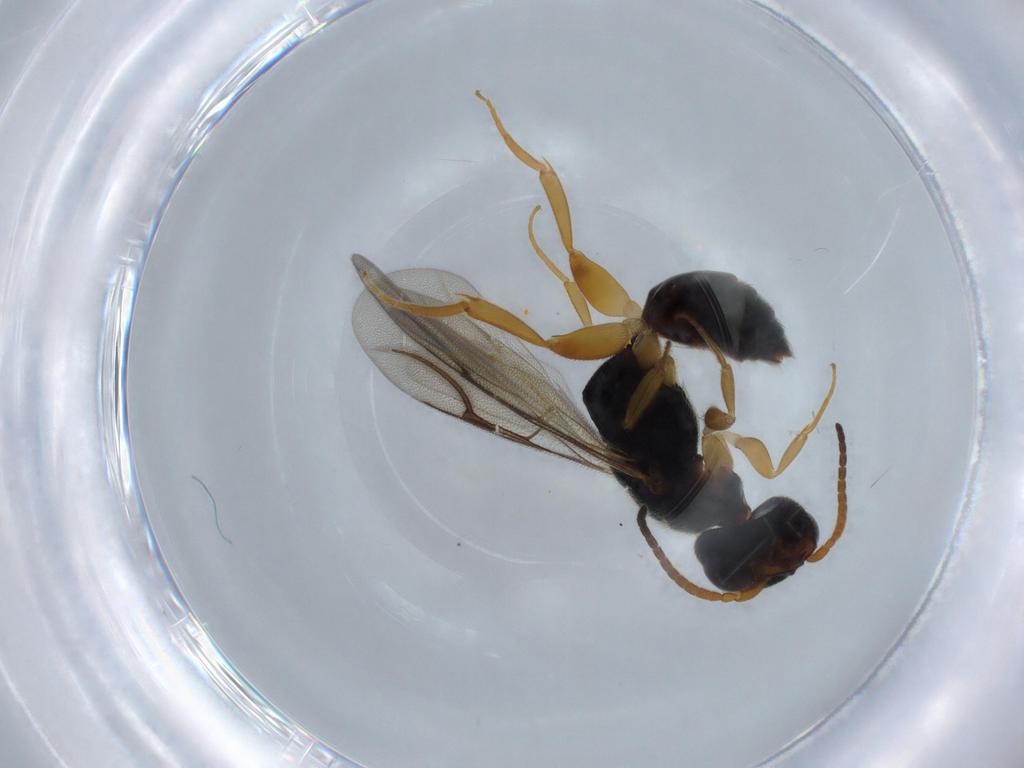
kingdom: Animalia
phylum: Arthropoda
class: Insecta
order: Hymenoptera
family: Bethylidae
